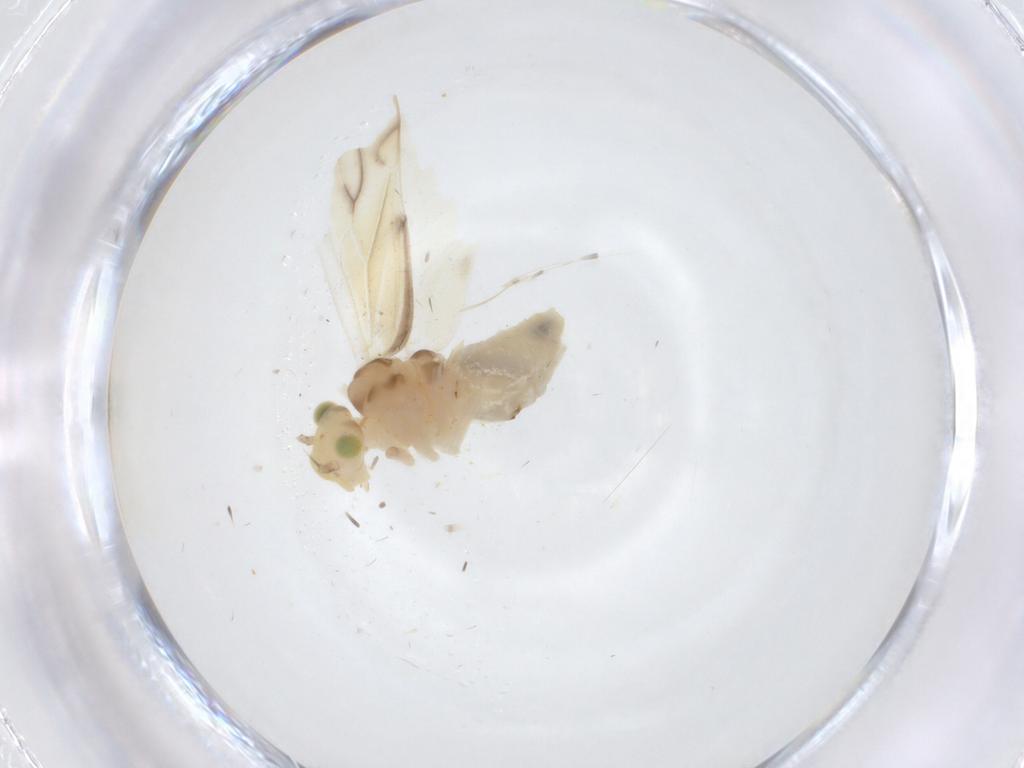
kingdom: Animalia
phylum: Arthropoda
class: Insecta
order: Psocodea
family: Caeciliusidae
